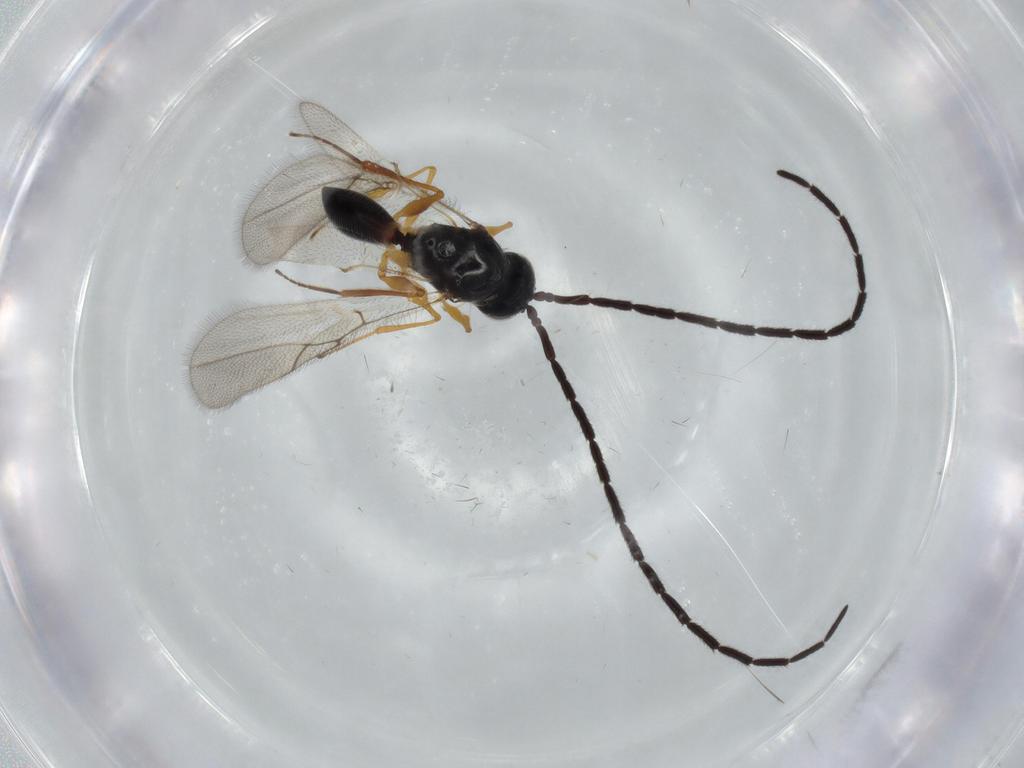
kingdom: Animalia
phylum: Arthropoda
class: Insecta
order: Hymenoptera
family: Figitidae
